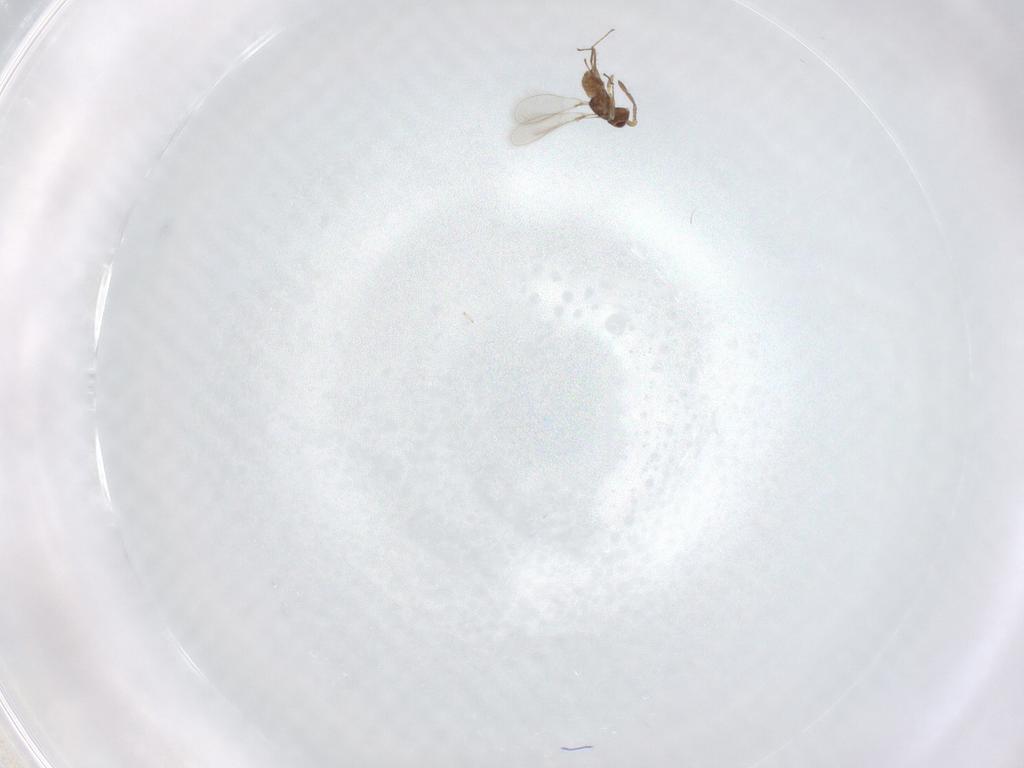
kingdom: Animalia
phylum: Arthropoda
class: Insecta
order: Hymenoptera
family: Mymaridae
